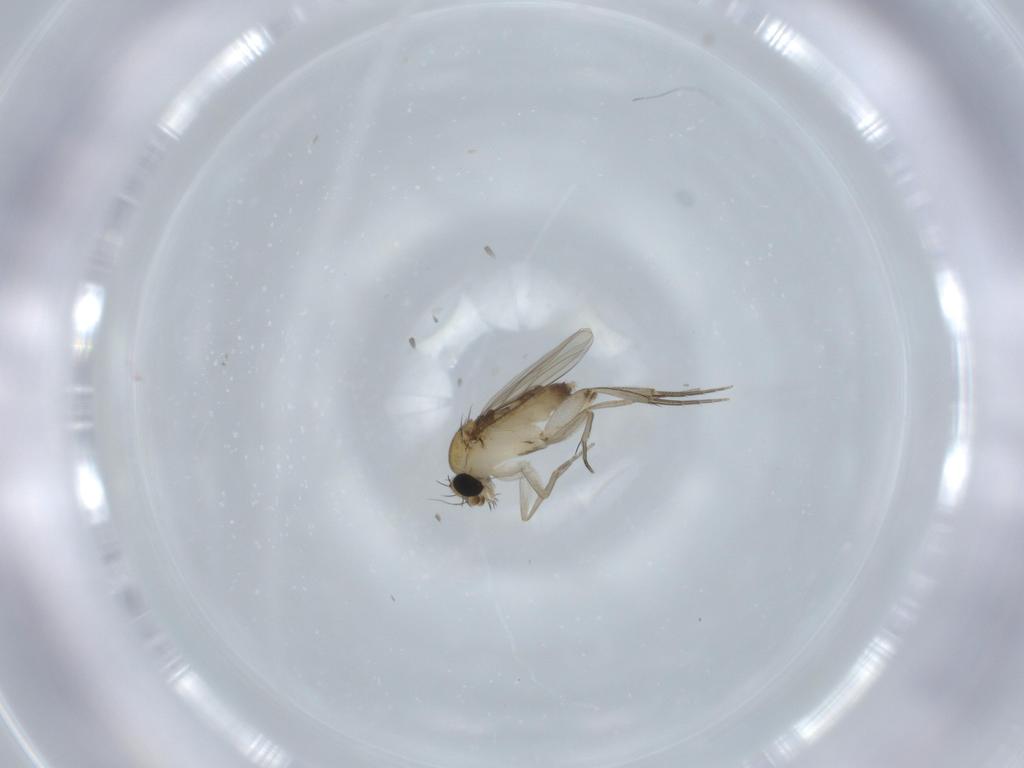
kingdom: Animalia
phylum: Arthropoda
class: Insecta
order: Diptera
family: Phoridae
